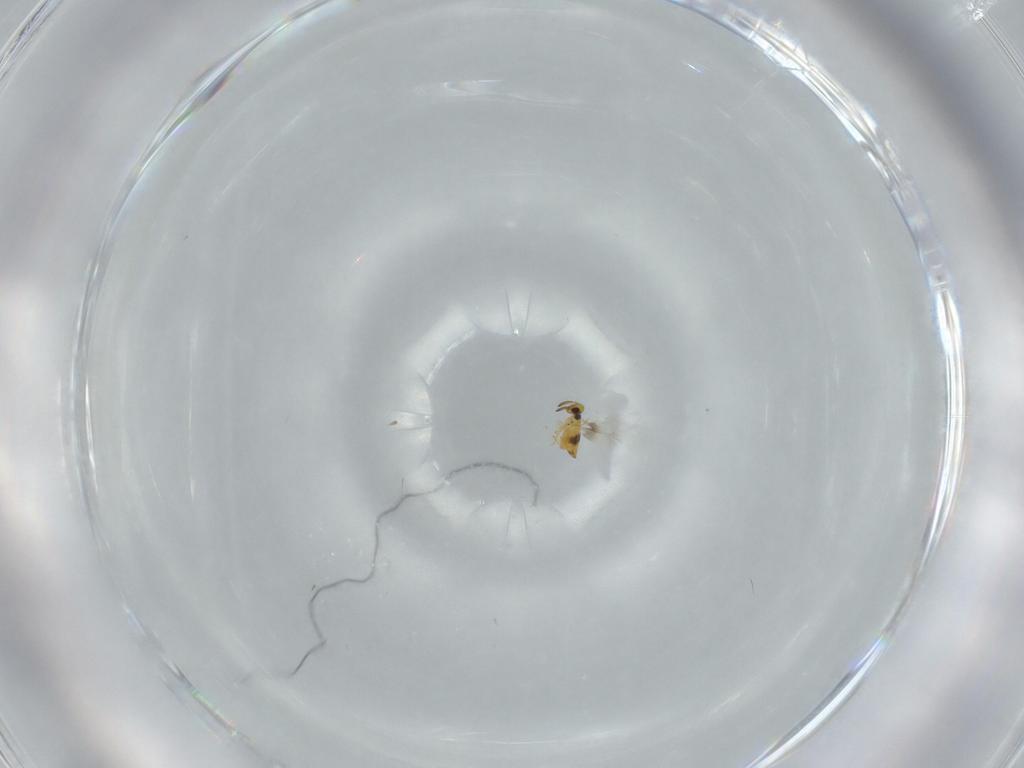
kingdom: Animalia
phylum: Arthropoda
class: Insecta
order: Hymenoptera
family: Signiphoridae
